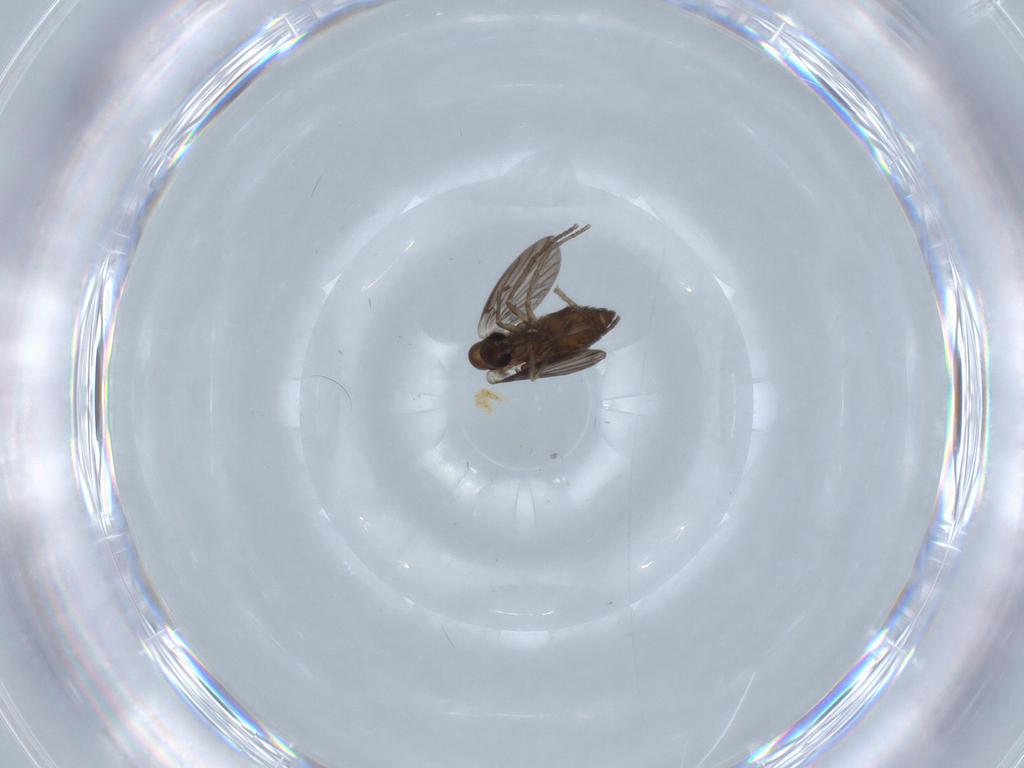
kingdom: Animalia
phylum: Arthropoda
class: Insecta
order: Diptera
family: Ceratopogonidae
